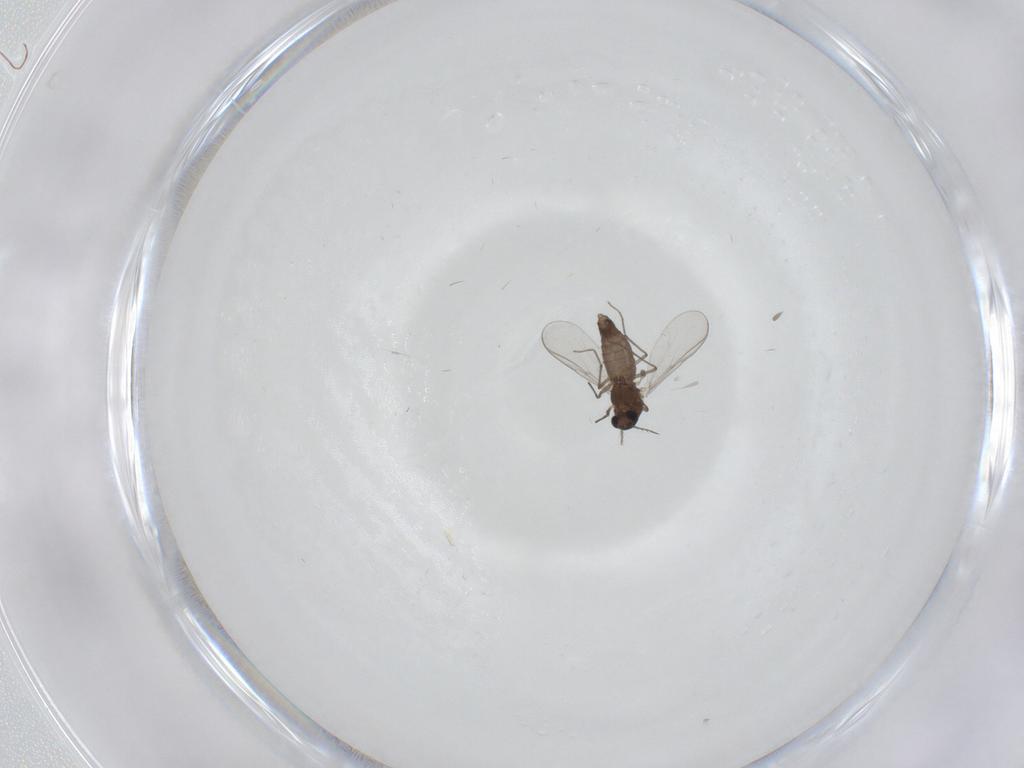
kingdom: Animalia
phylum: Arthropoda
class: Insecta
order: Diptera
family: Chironomidae
